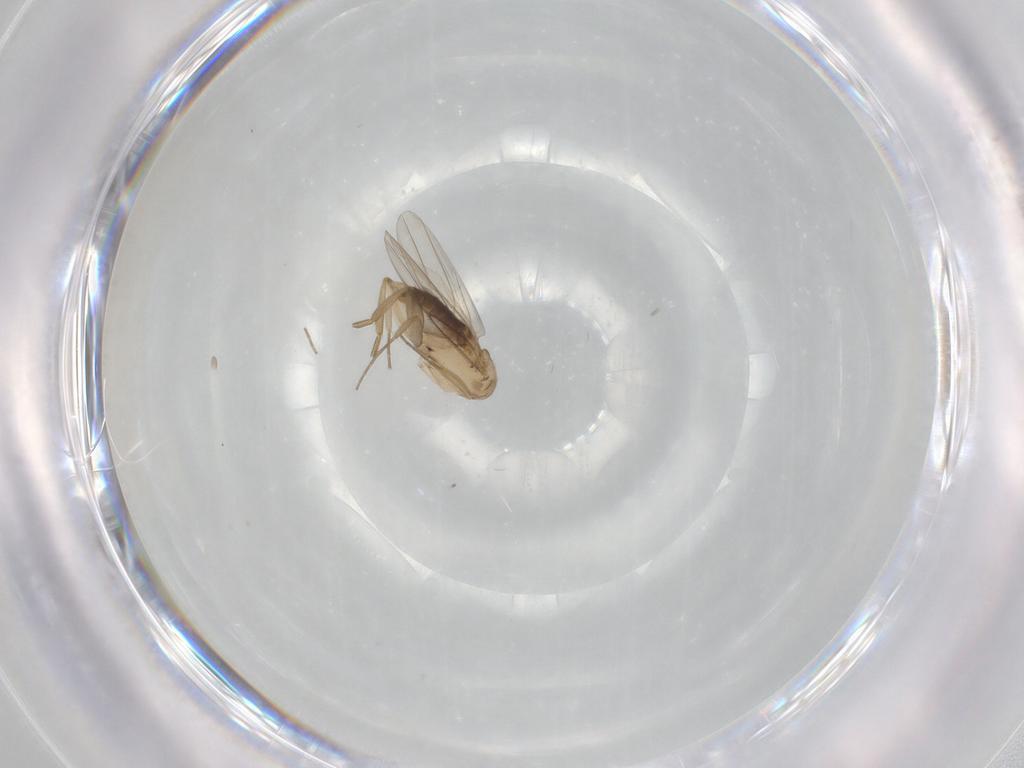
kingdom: Animalia
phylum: Arthropoda
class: Insecta
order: Diptera
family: Phoridae
